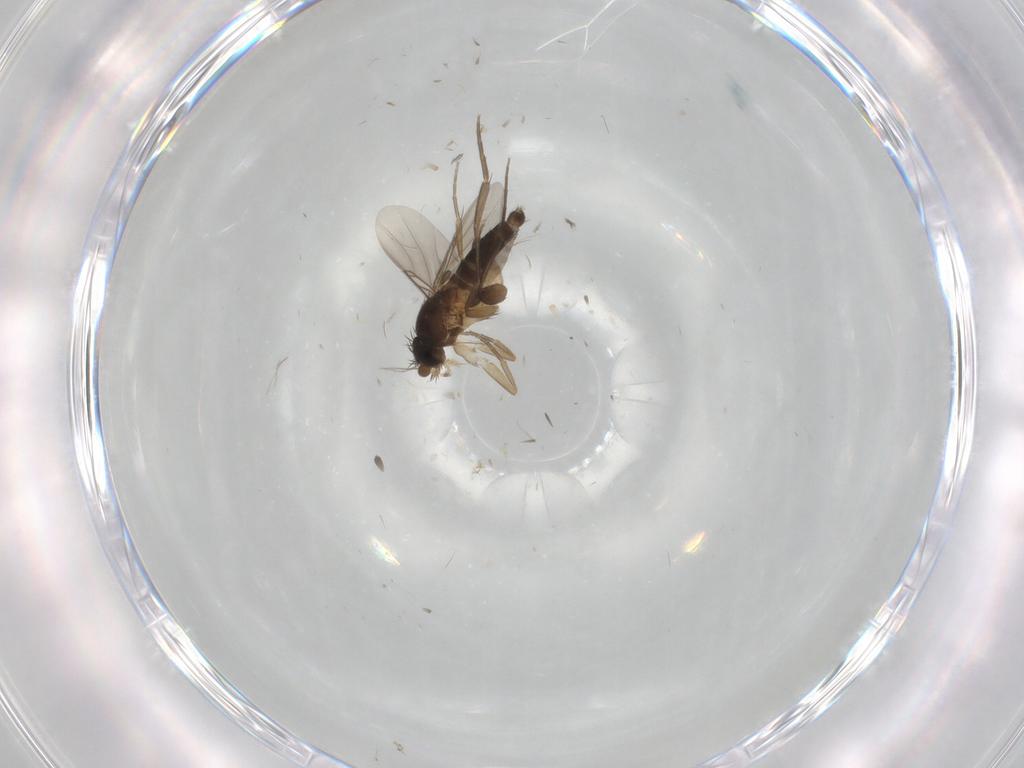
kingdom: Animalia
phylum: Arthropoda
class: Insecta
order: Diptera
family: Phoridae
